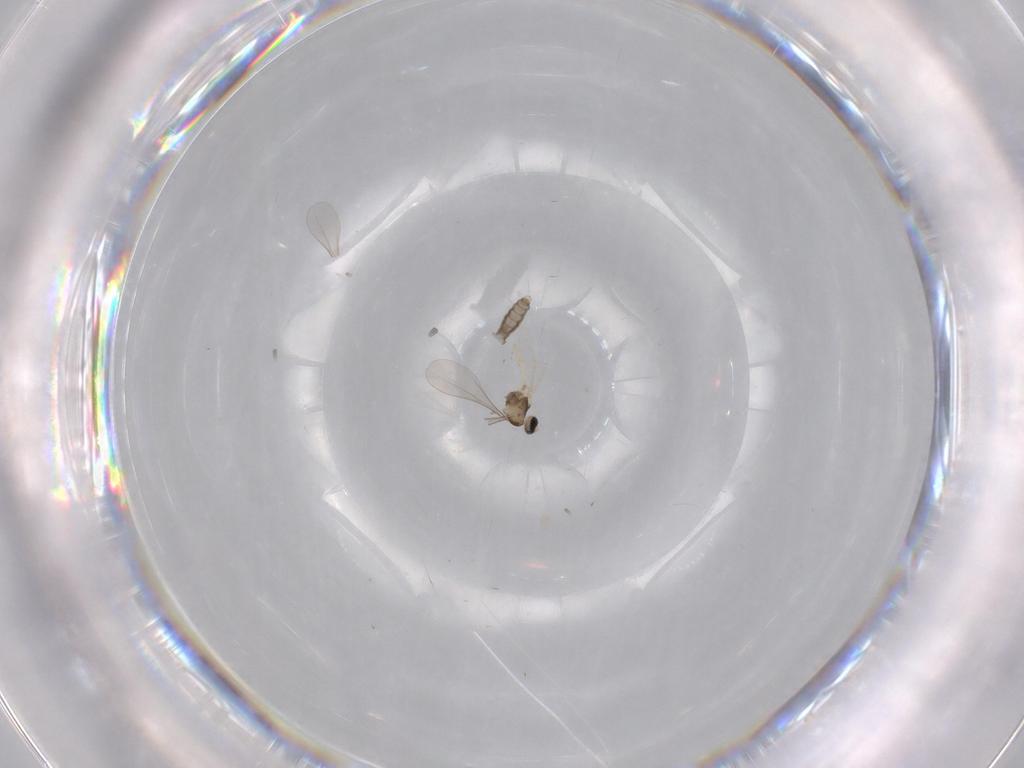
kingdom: Animalia
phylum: Arthropoda
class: Insecta
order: Diptera
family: Cecidomyiidae
